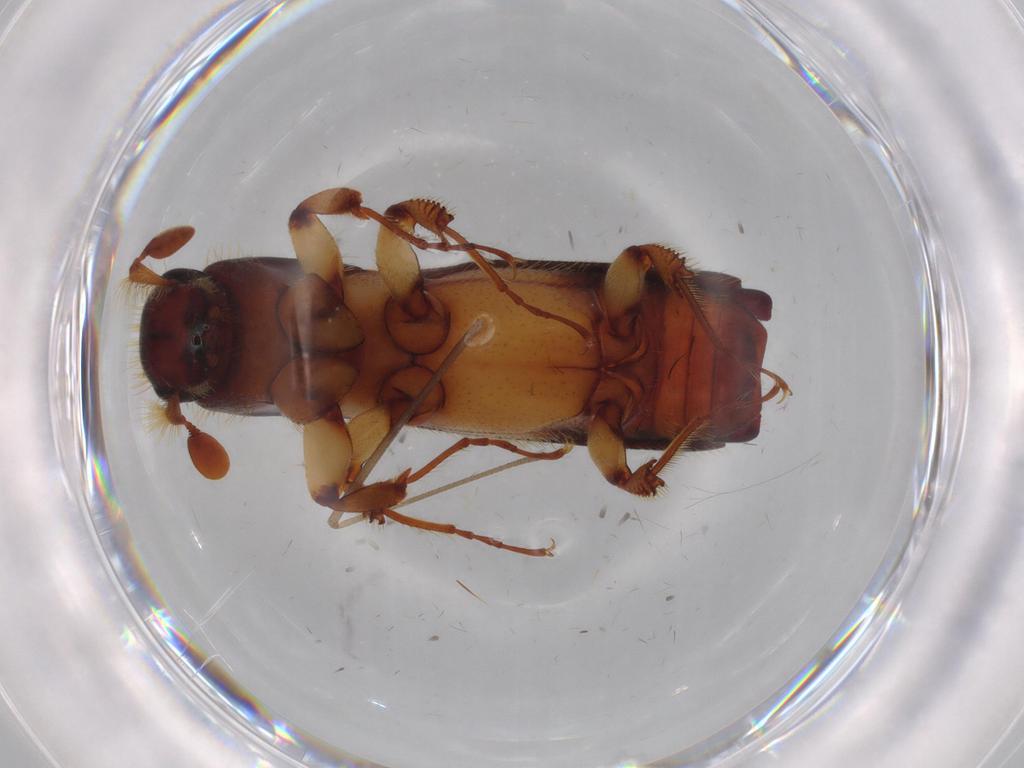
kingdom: Animalia
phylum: Arthropoda
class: Insecta
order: Coleoptera
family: Curculionidae
